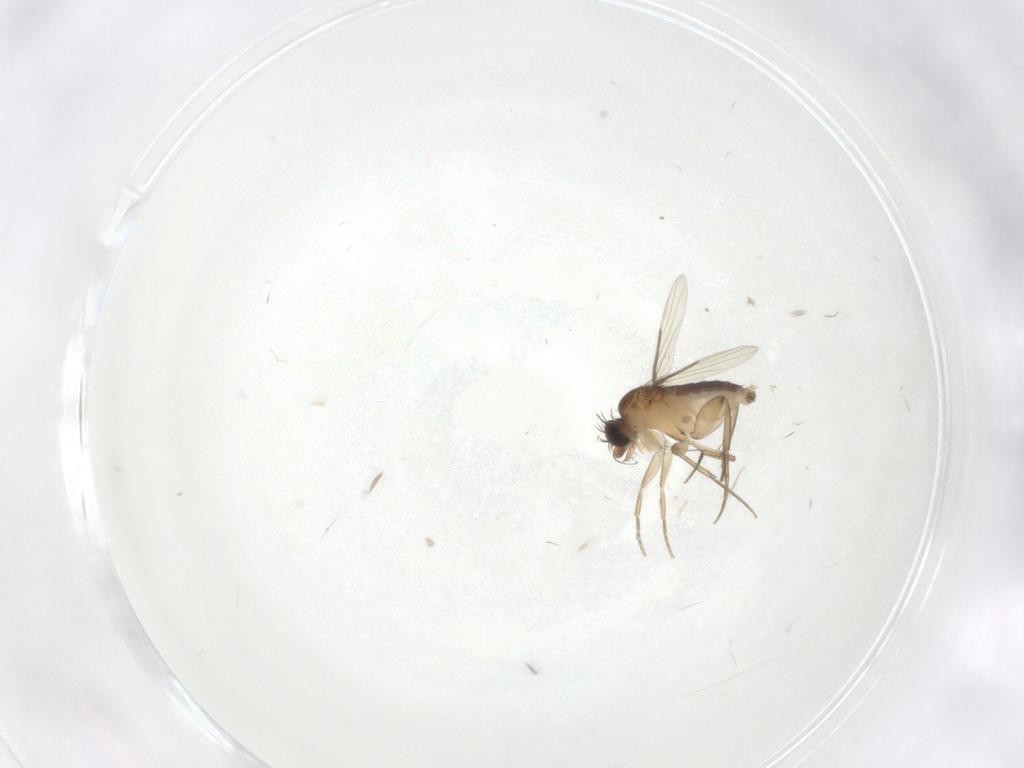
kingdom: Animalia
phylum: Arthropoda
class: Insecta
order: Diptera
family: Phoridae
